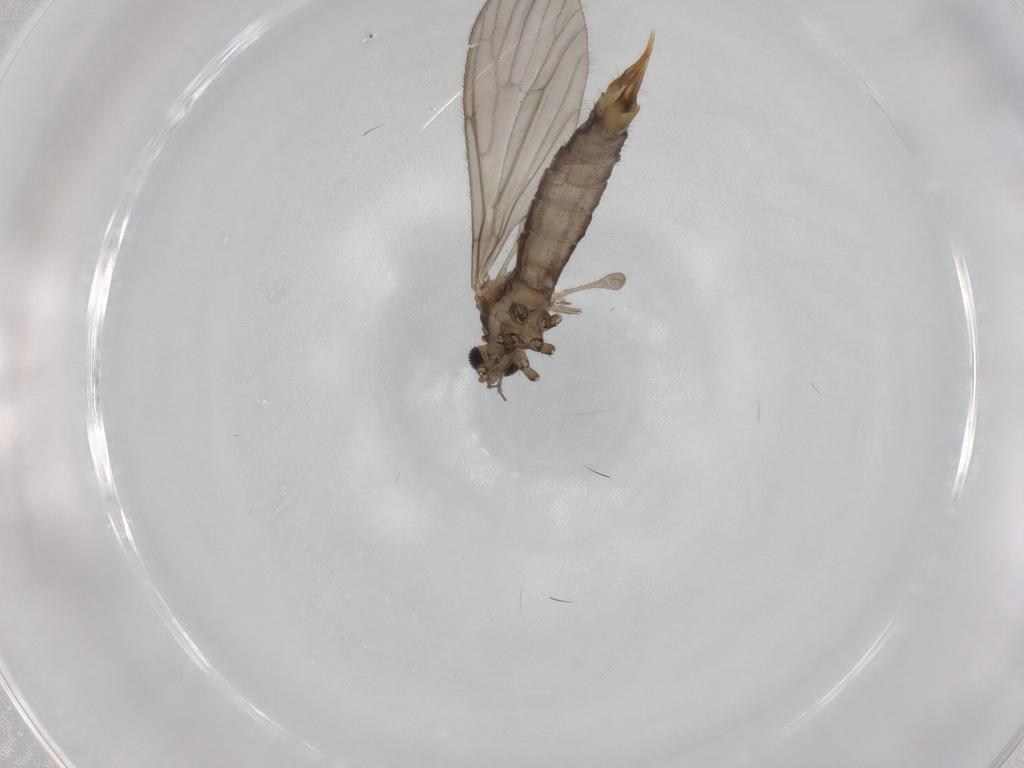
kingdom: Animalia
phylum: Arthropoda
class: Insecta
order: Diptera
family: Limoniidae
